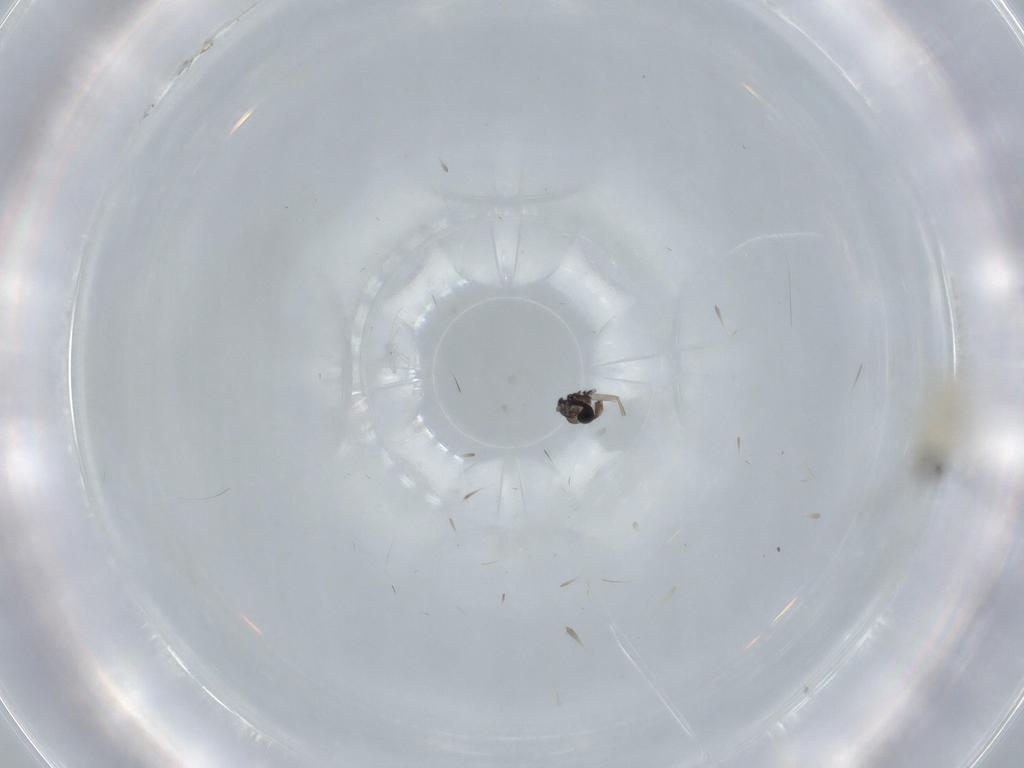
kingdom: Animalia
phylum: Arthropoda
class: Insecta
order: Diptera
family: Cecidomyiidae
